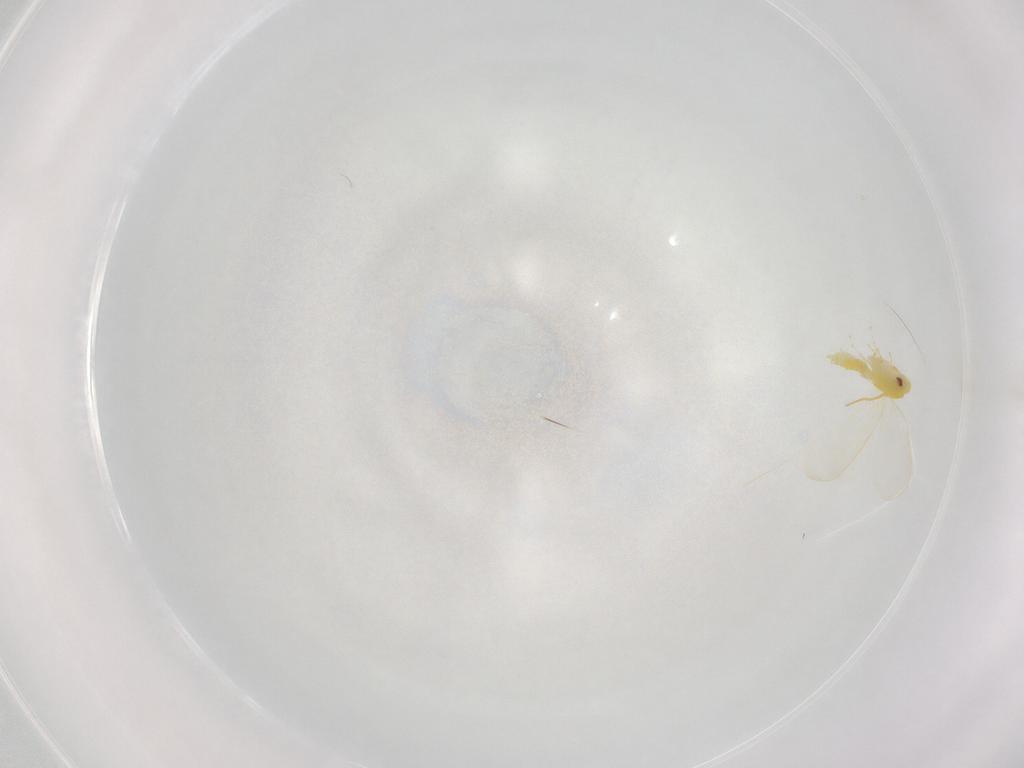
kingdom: Animalia
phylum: Arthropoda
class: Insecta
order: Hemiptera
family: Aleyrodidae
